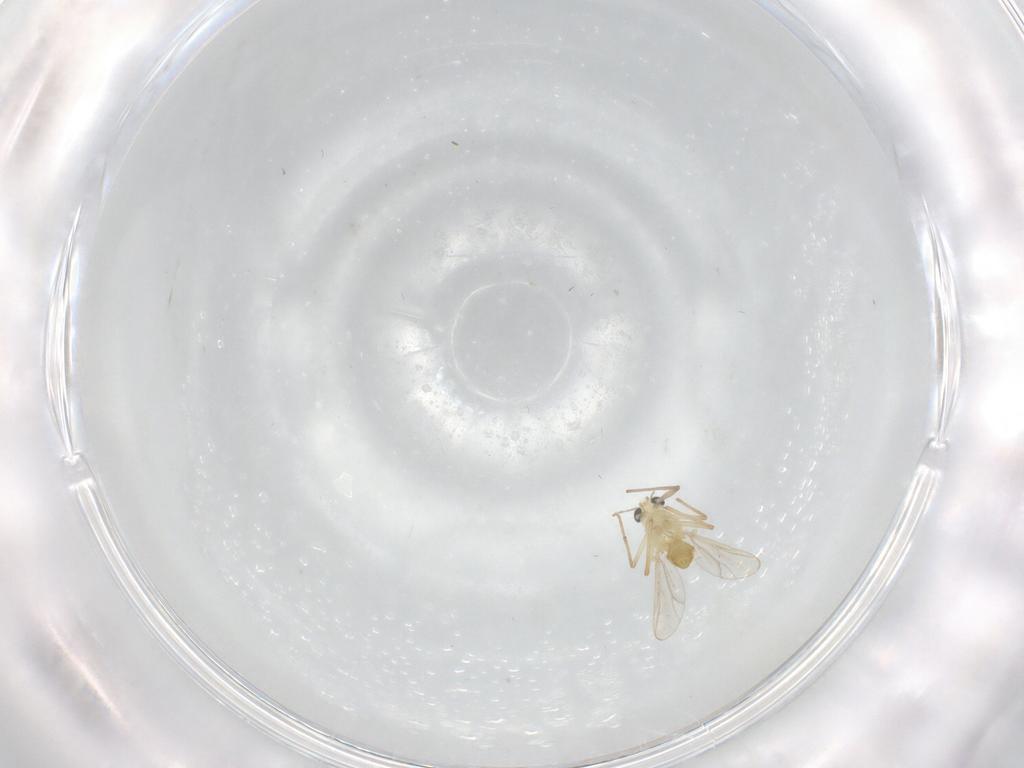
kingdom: Animalia
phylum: Arthropoda
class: Insecta
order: Diptera
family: Chironomidae
